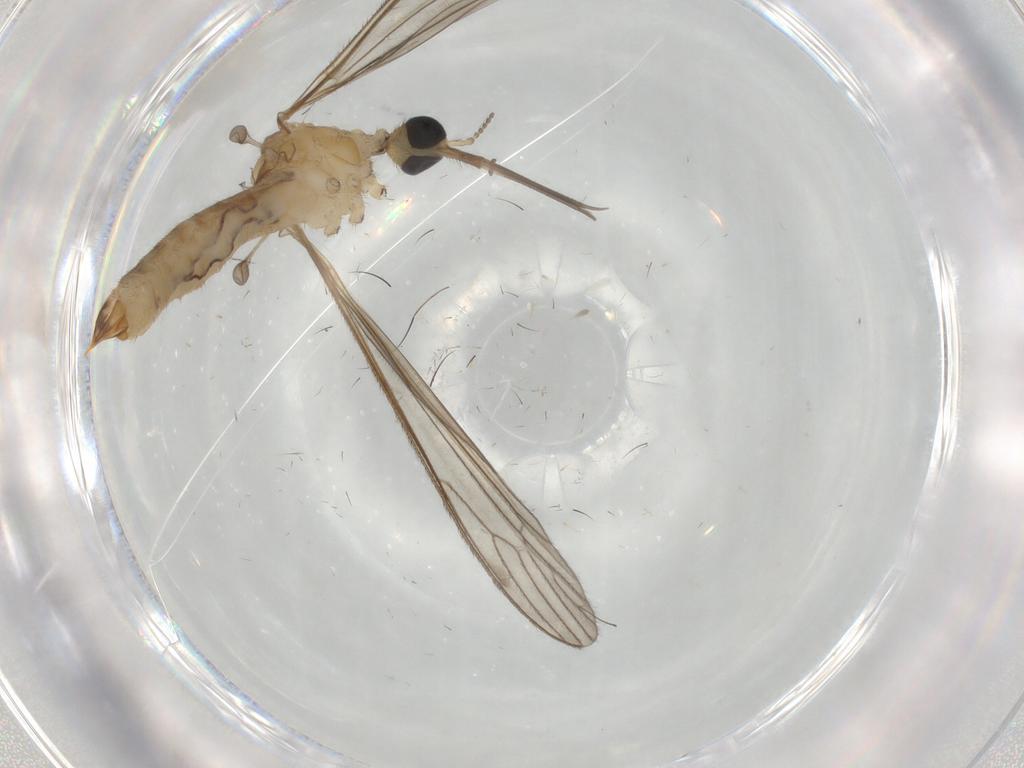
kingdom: Animalia
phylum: Arthropoda
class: Insecta
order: Diptera
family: Limoniidae
